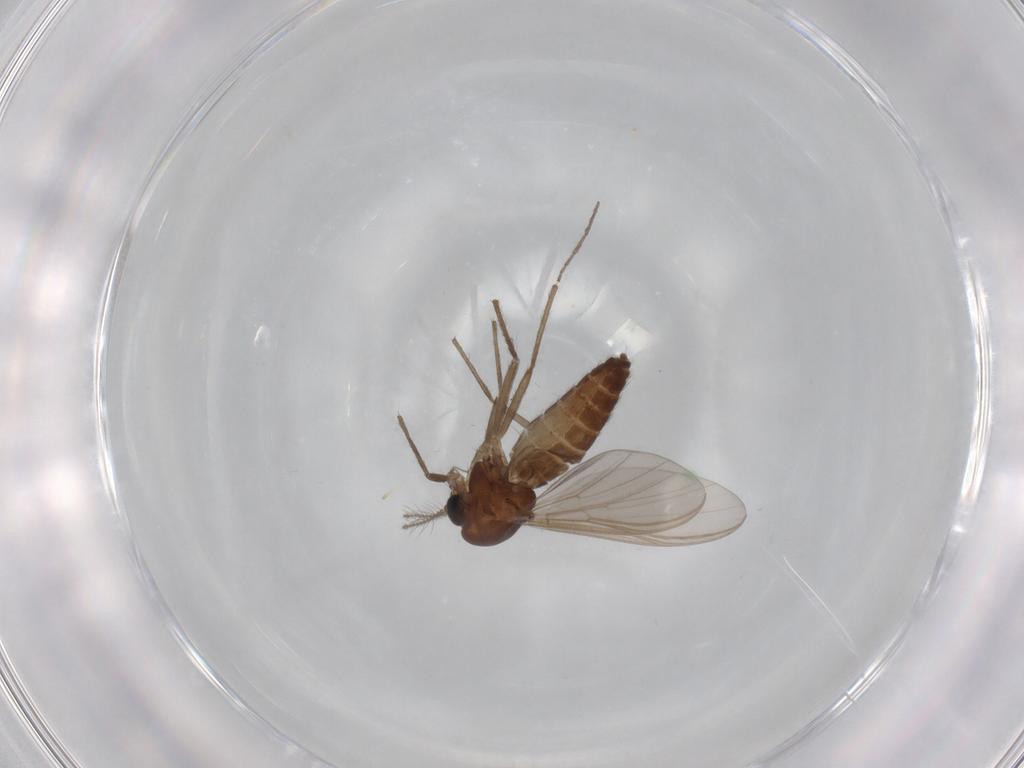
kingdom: Animalia
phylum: Arthropoda
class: Insecta
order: Diptera
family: Chironomidae
